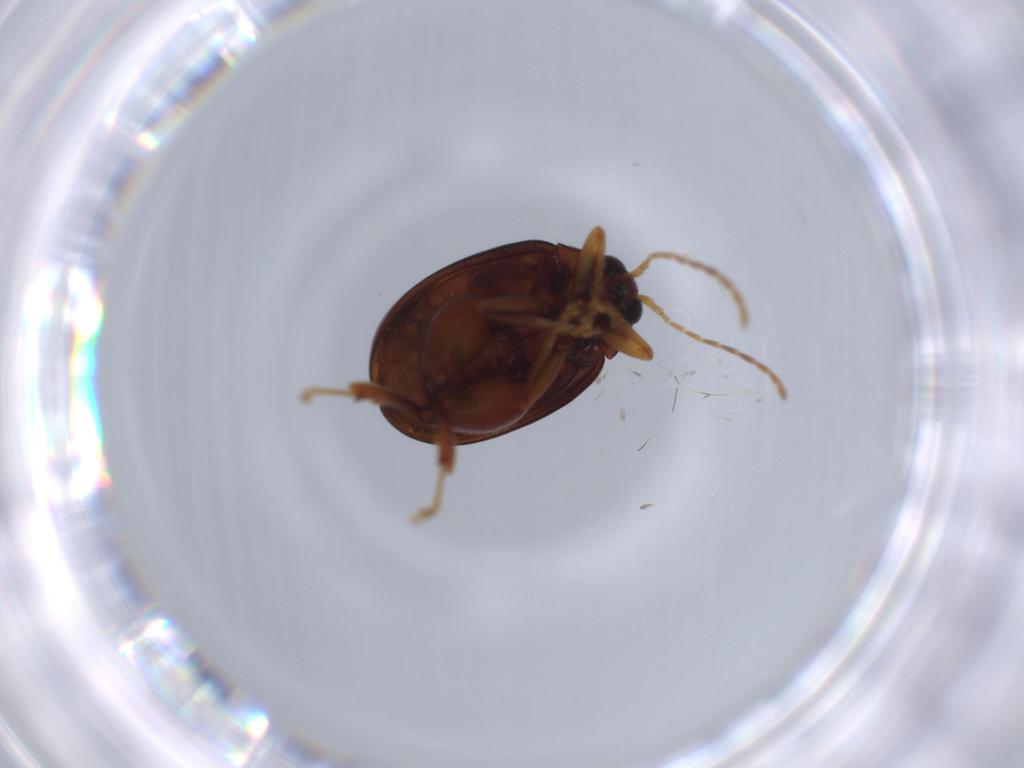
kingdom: Animalia
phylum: Arthropoda
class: Insecta
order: Coleoptera
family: Chrysomelidae
